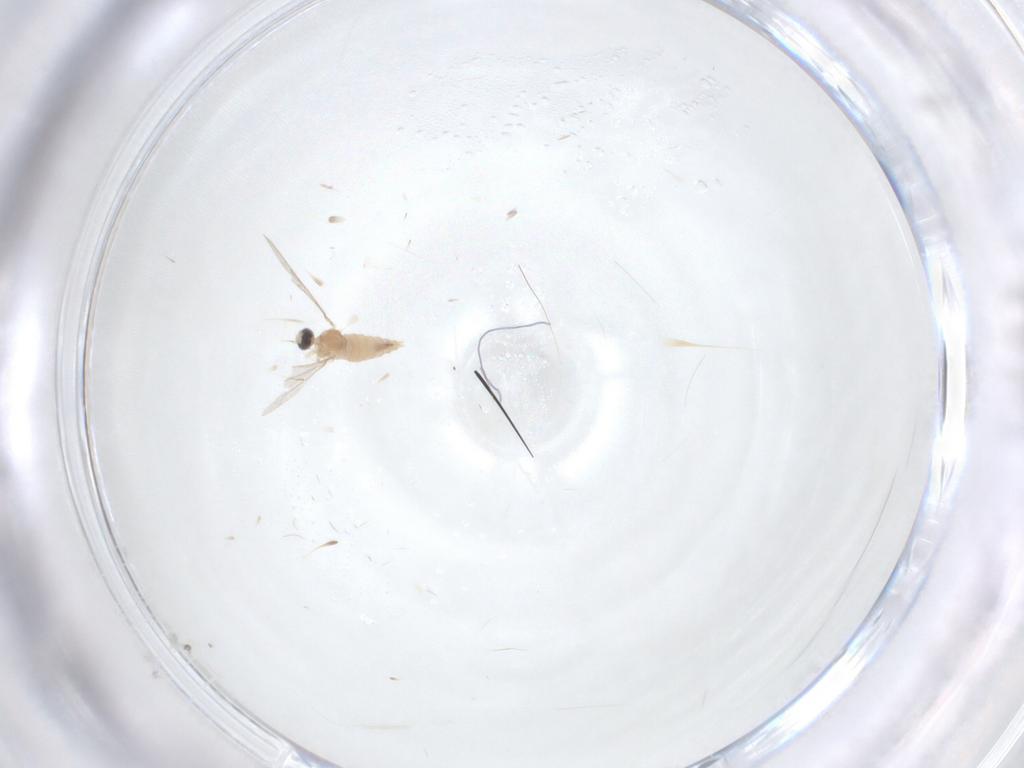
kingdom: Animalia
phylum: Arthropoda
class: Insecta
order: Diptera
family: Cecidomyiidae
